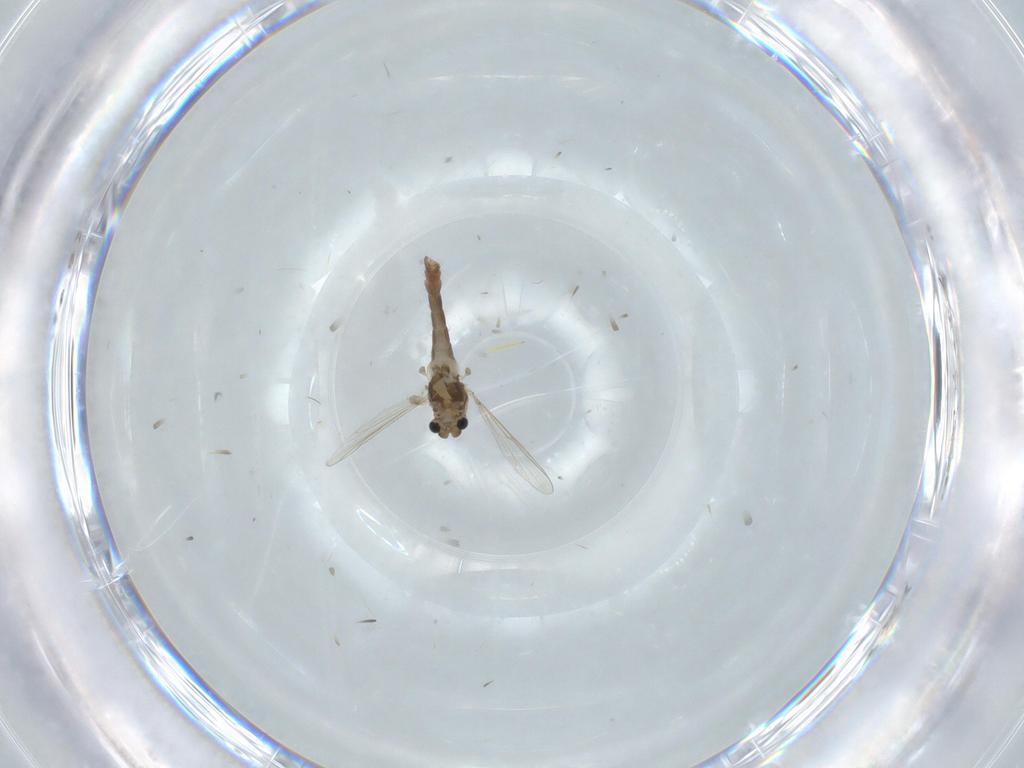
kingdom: Animalia
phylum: Arthropoda
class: Insecta
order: Diptera
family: Chironomidae
